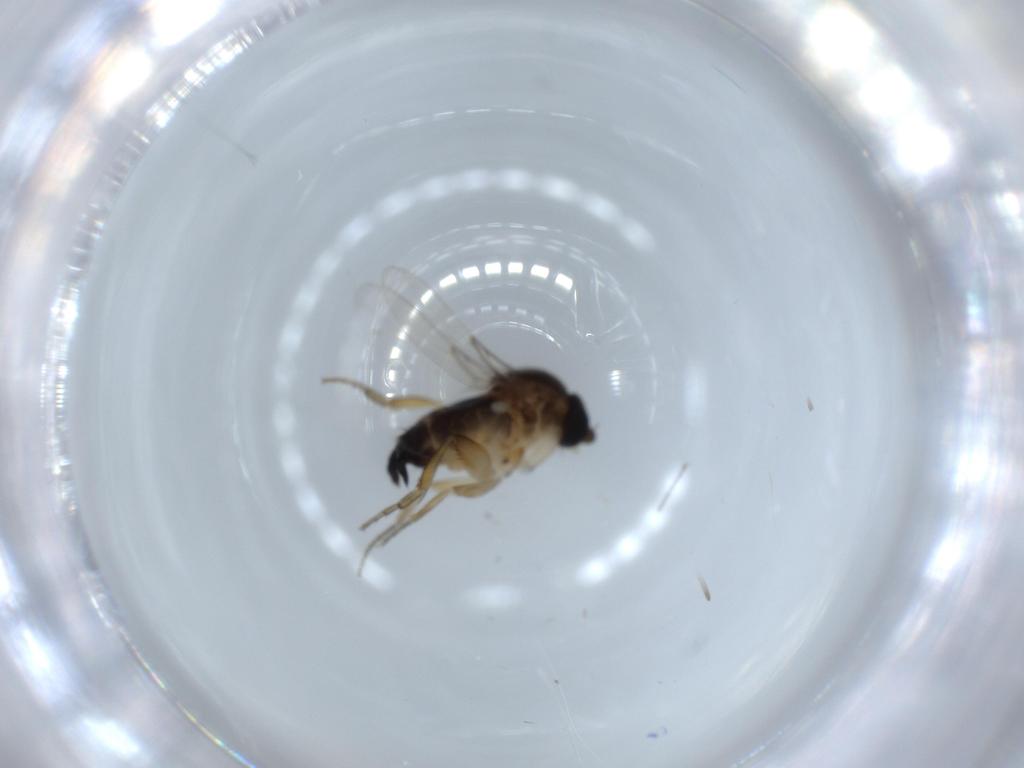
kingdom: Animalia
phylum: Arthropoda
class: Insecta
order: Diptera
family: Phoridae
